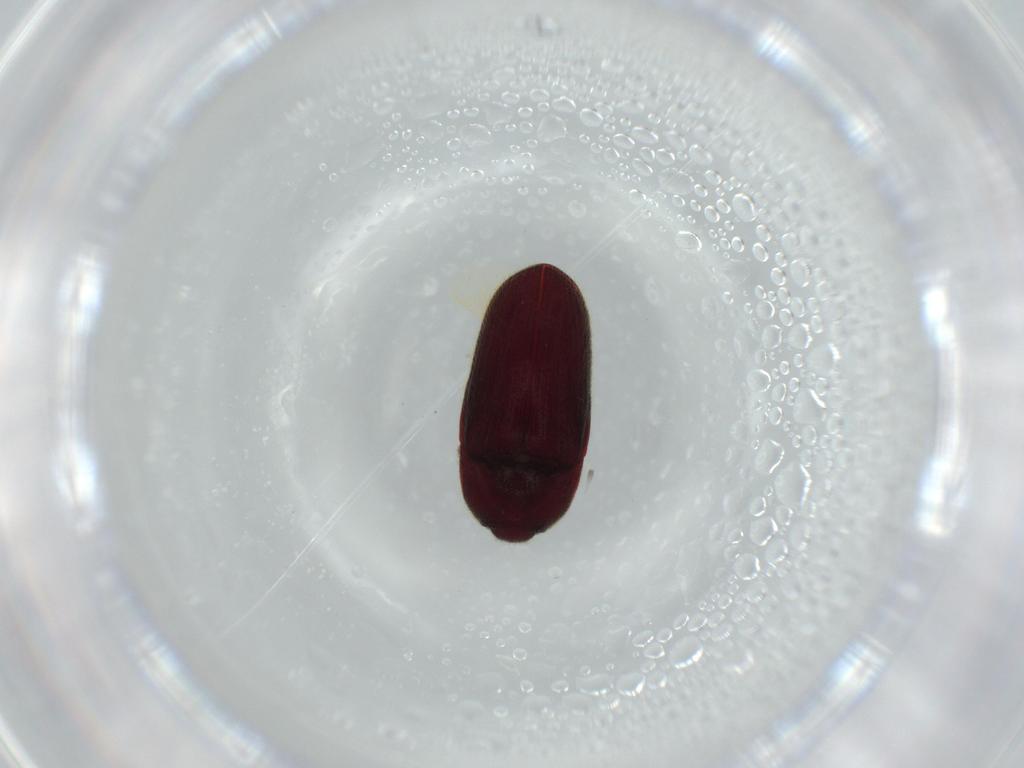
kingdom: Animalia
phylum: Arthropoda
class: Insecta
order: Coleoptera
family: Throscidae
